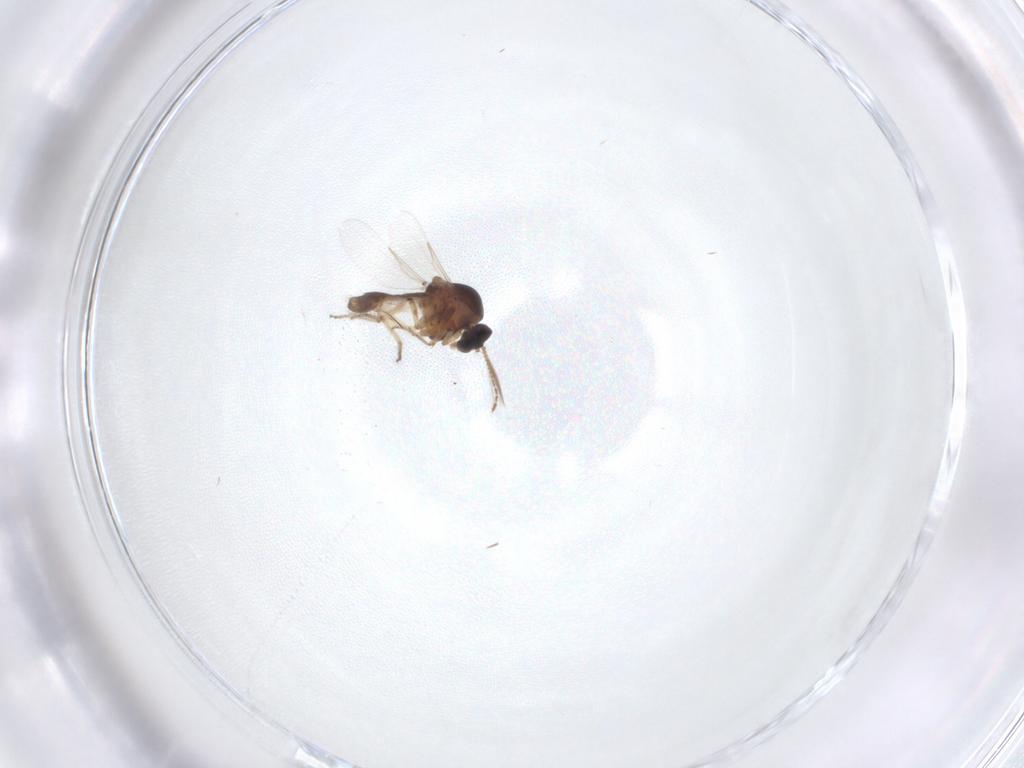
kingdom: Animalia
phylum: Arthropoda
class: Insecta
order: Diptera
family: Ceratopogonidae
